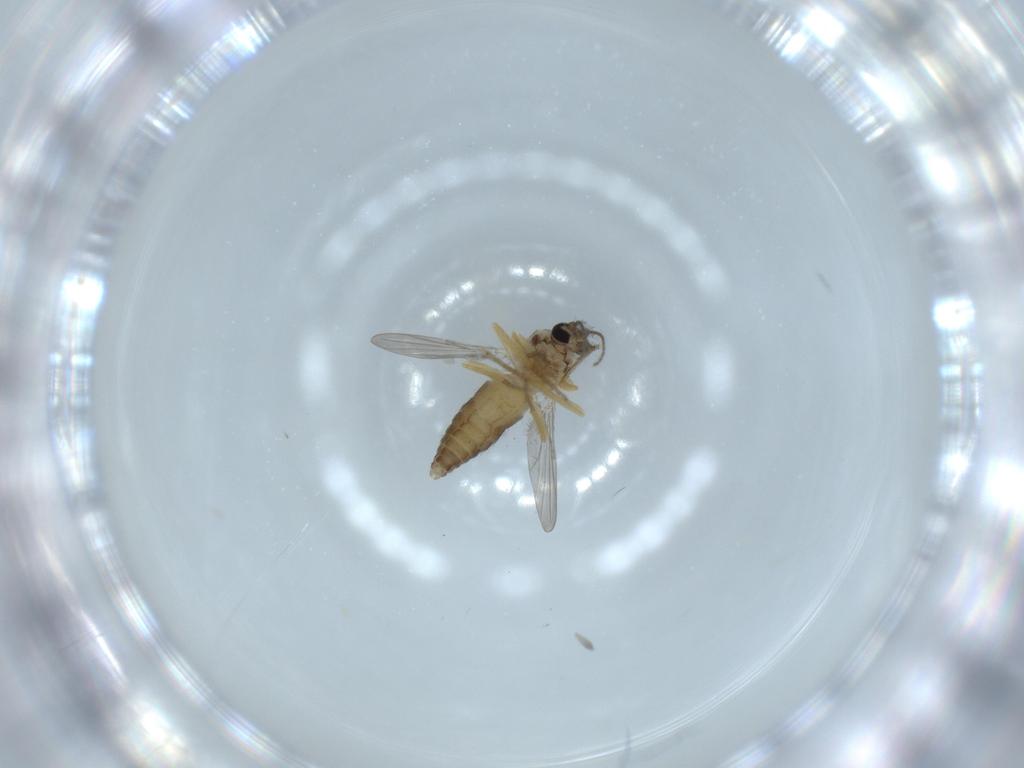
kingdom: Animalia
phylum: Arthropoda
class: Insecta
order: Diptera
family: Ceratopogonidae
